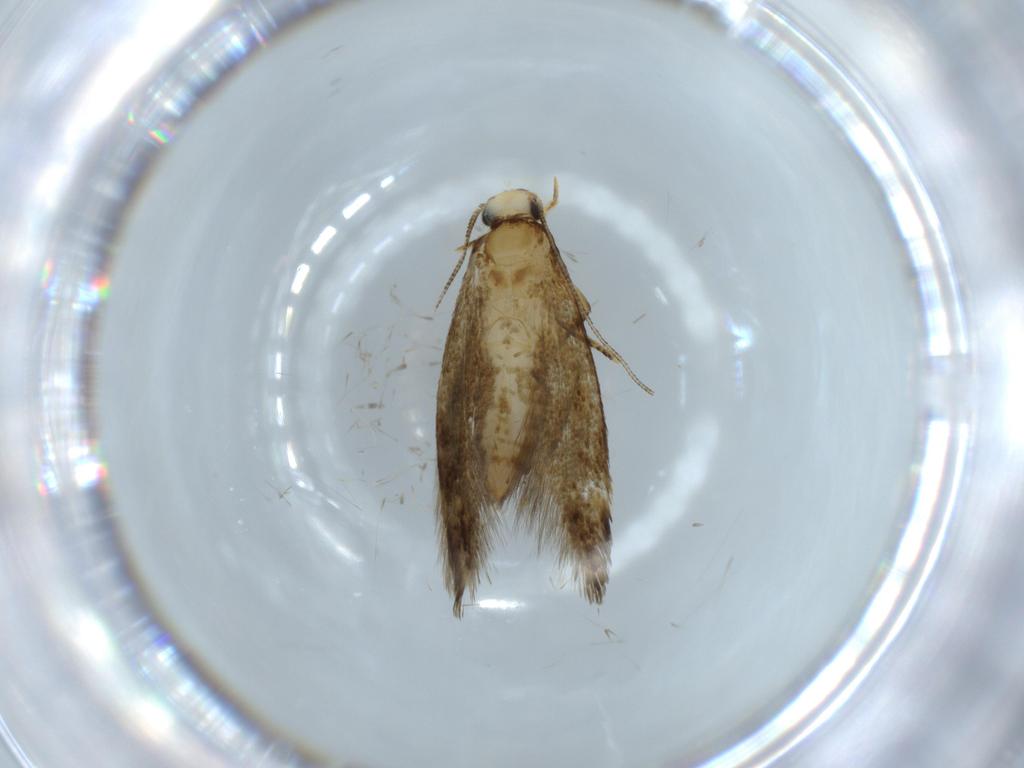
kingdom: Animalia
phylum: Arthropoda
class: Insecta
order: Lepidoptera
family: Tineidae
